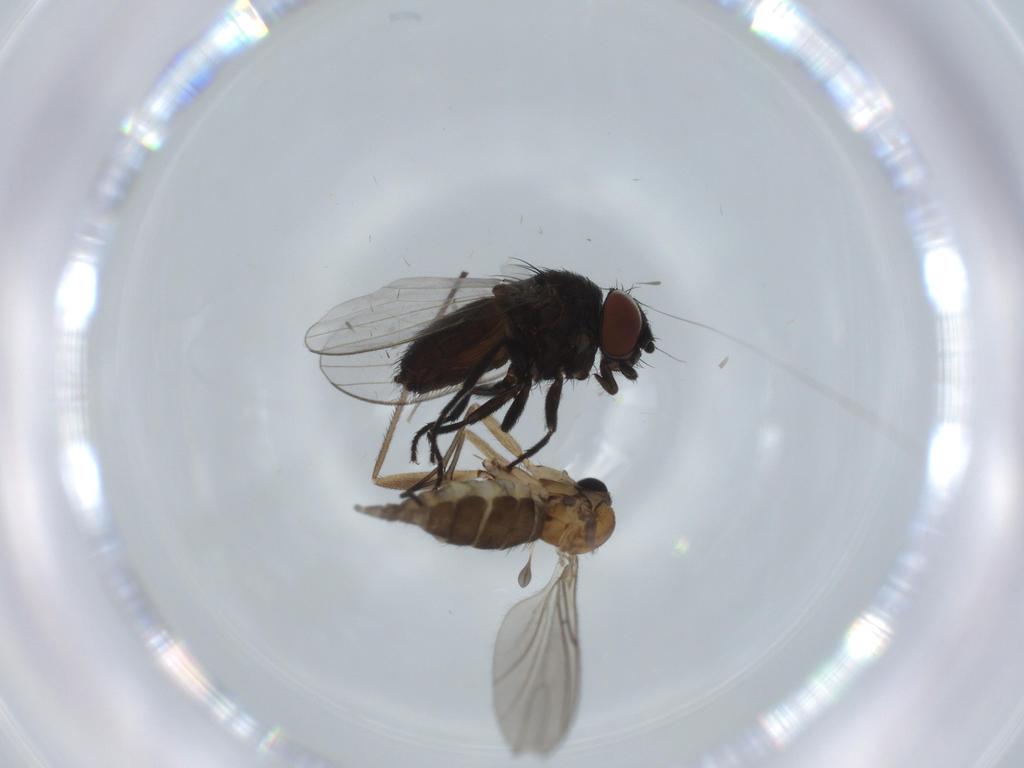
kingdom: Animalia
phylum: Arthropoda
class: Insecta
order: Diptera
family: Sciaridae
